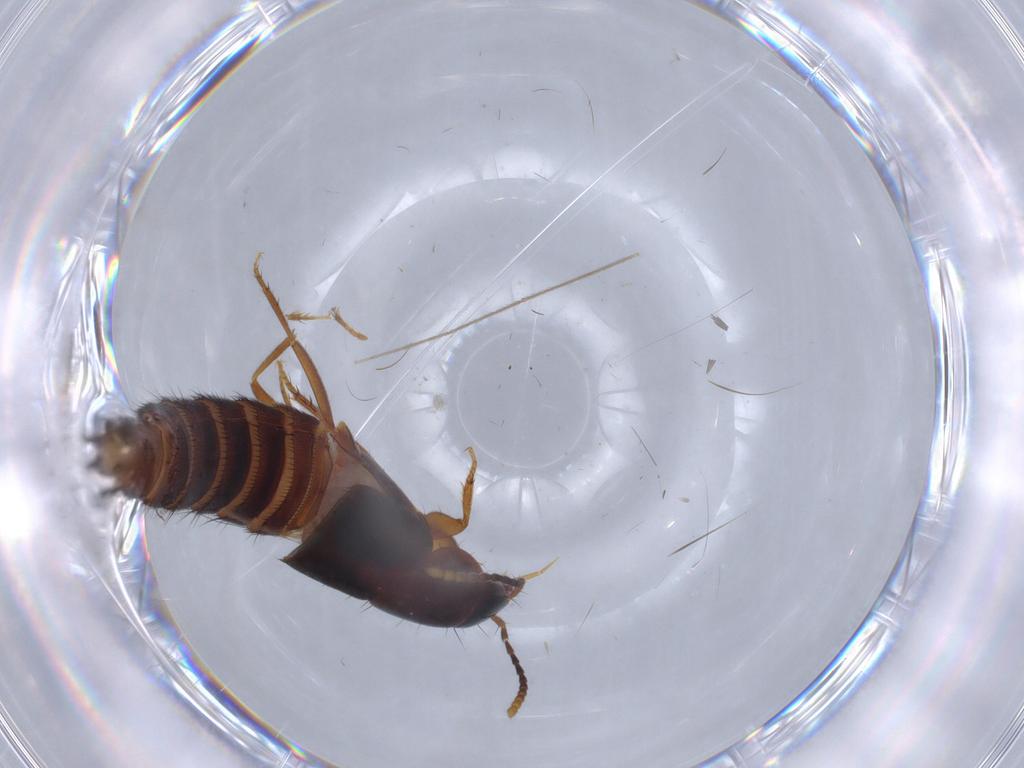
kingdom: Animalia
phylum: Arthropoda
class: Insecta
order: Coleoptera
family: Staphylinidae
